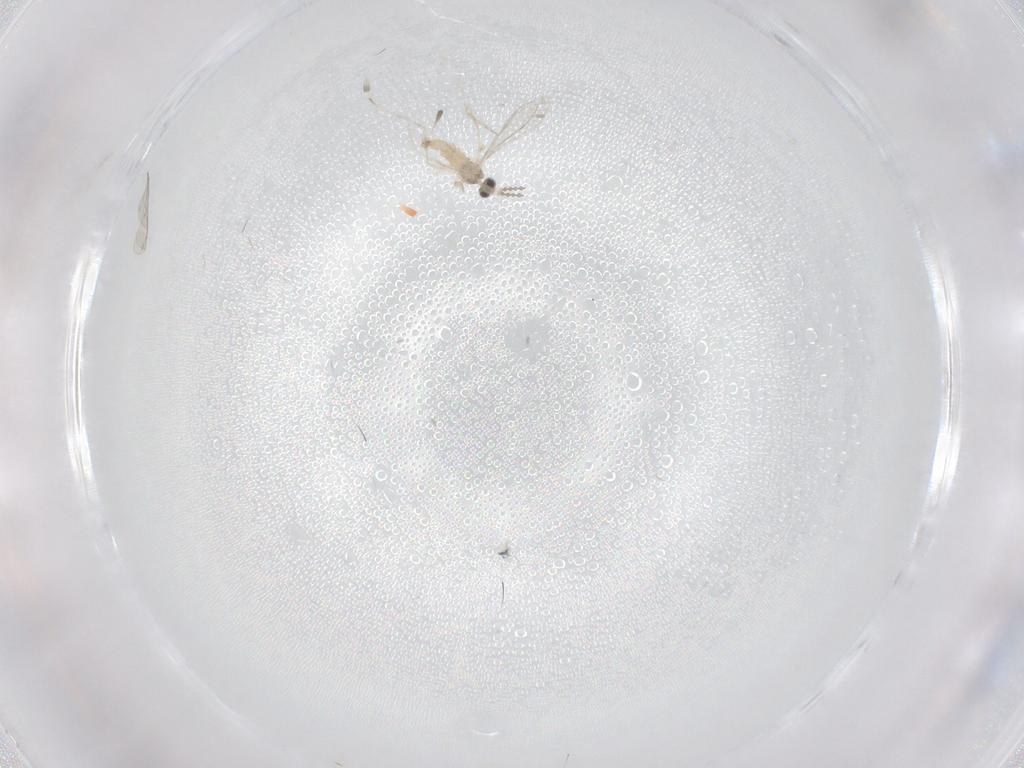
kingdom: Animalia
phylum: Arthropoda
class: Insecta
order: Diptera
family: Cecidomyiidae
